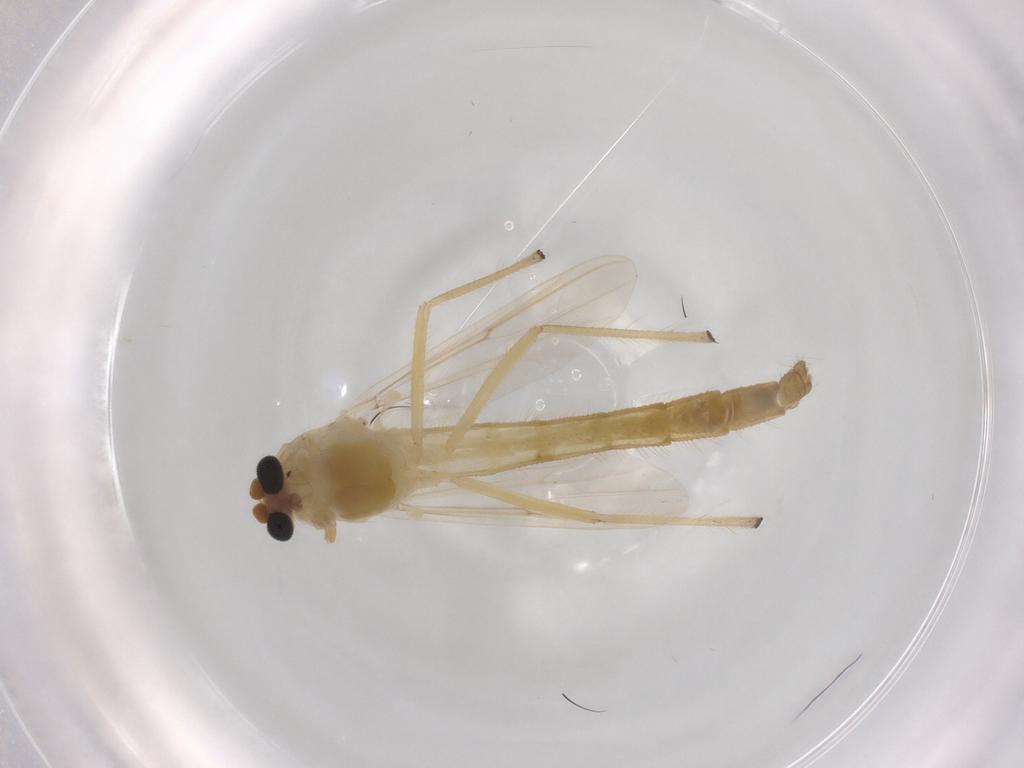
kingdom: Animalia
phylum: Arthropoda
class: Insecta
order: Diptera
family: Chironomidae
